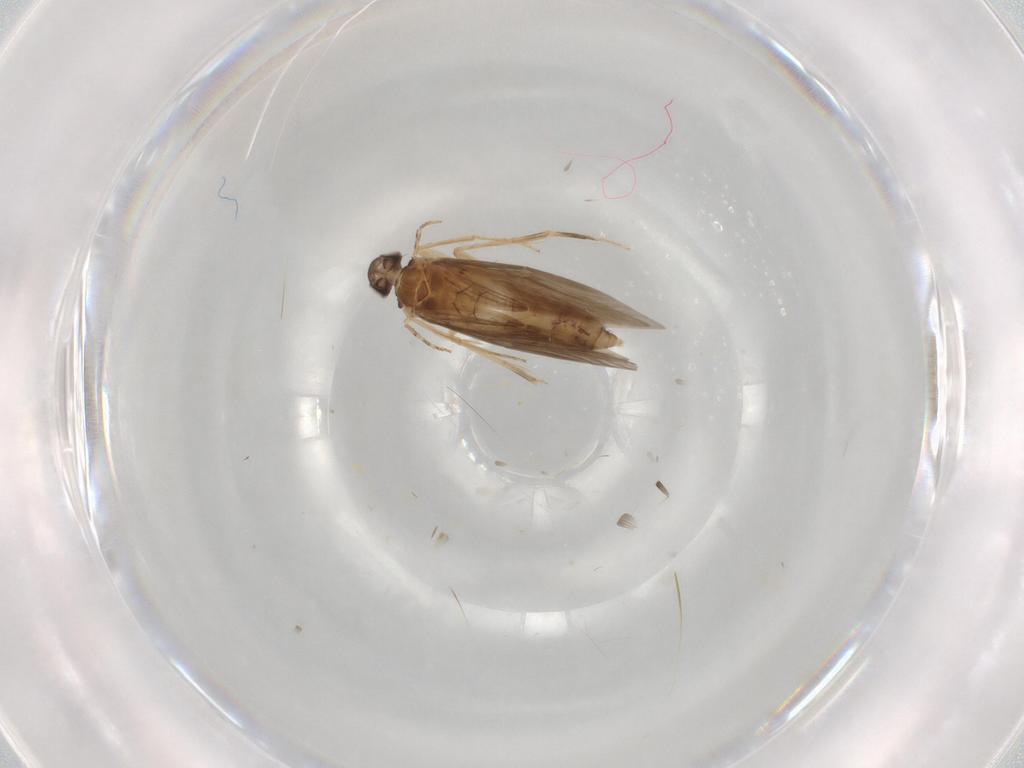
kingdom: Animalia
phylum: Arthropoda
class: Insecta
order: Trichoptera
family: Hydroptilidae
